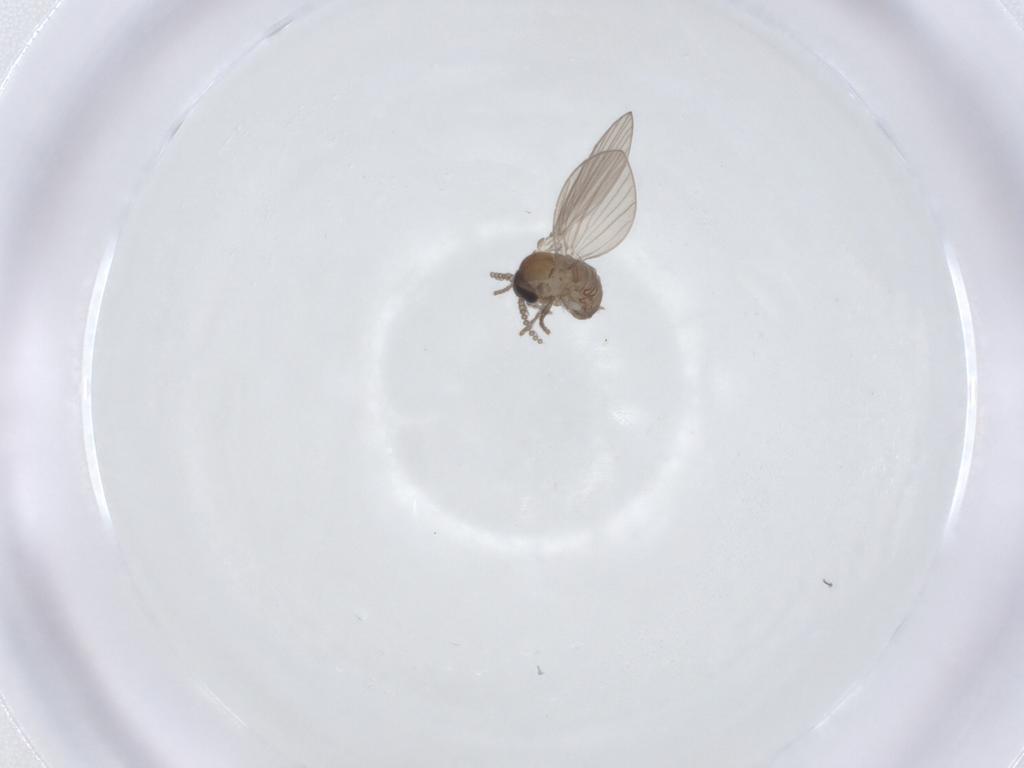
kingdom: Animalia
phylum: Arthropoda
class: Insecta
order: Diptera
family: Psychodidae
